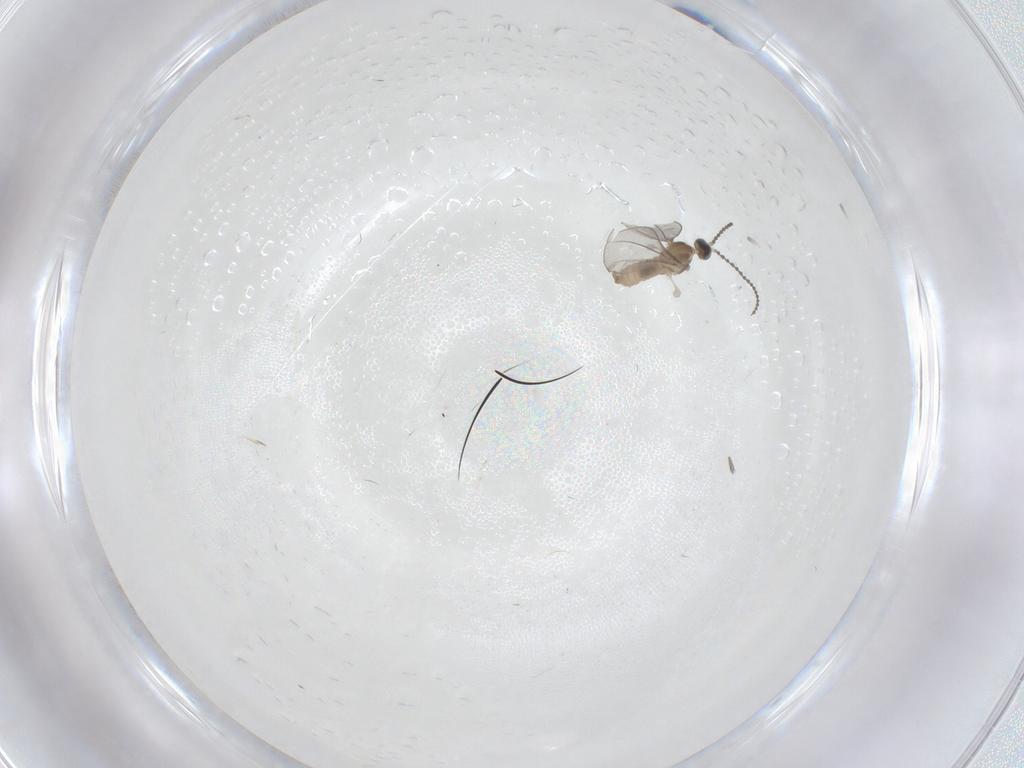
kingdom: Animalia
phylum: Arthropoda
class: Insecta
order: Diptera
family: Chironomidae
